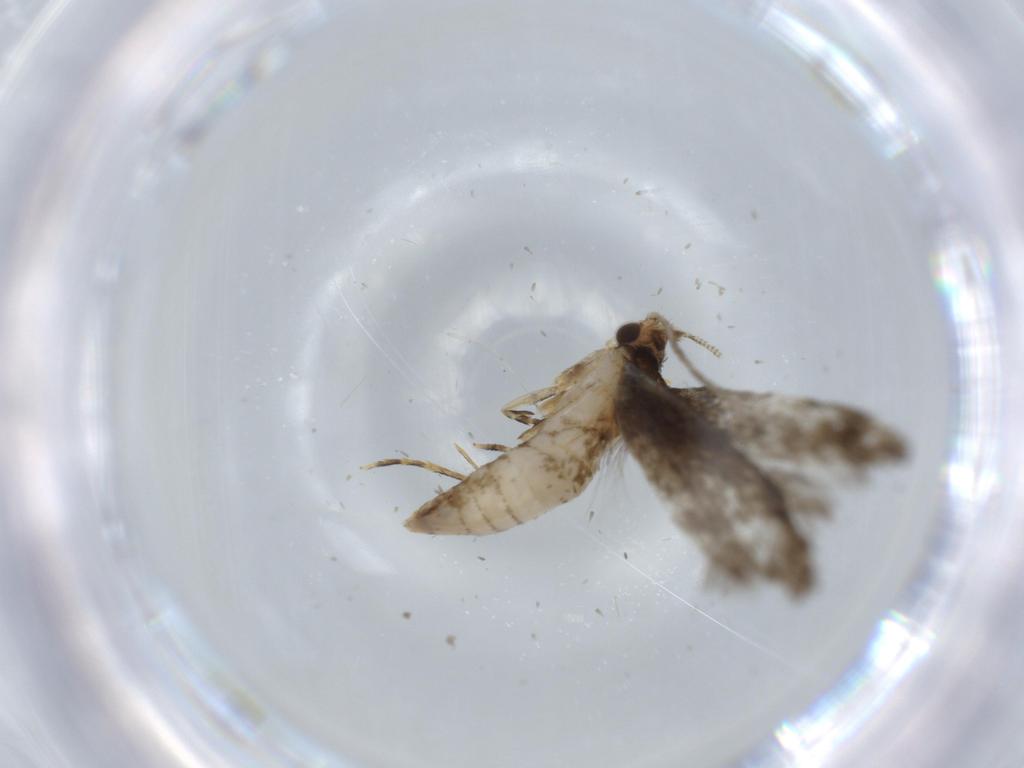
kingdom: Animalia
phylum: Arthropoda
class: Insecta
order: Lepidoptera
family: Meessiidae
